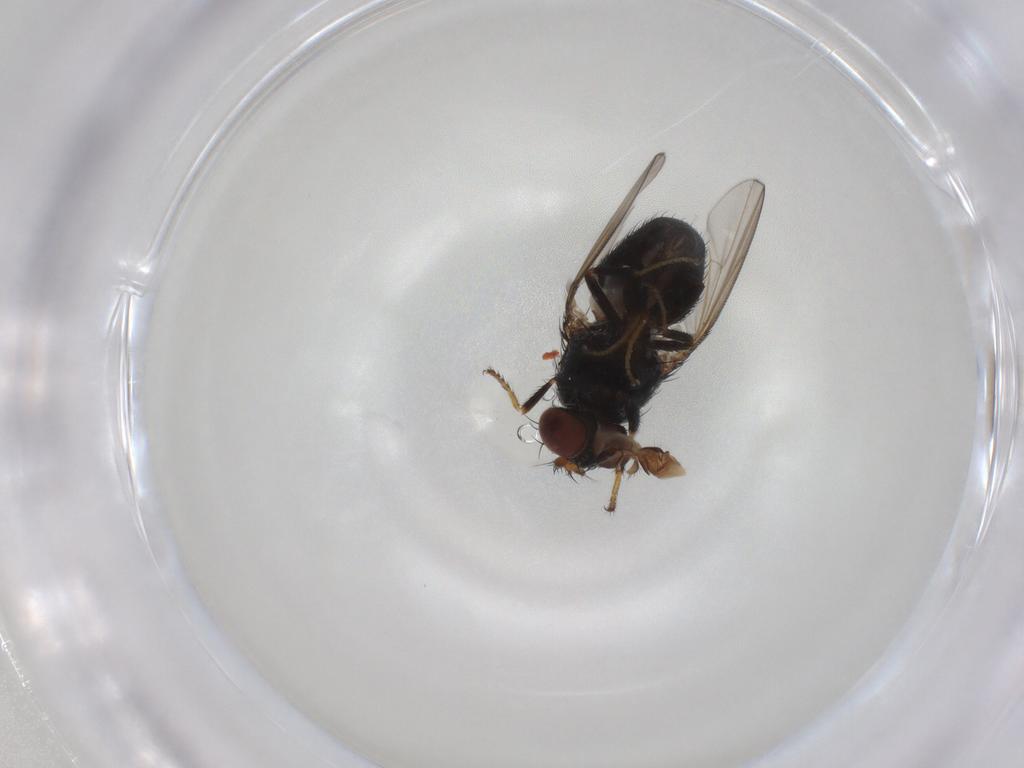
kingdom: Animalia
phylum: Arthropoda
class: Insecta
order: Diptera
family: Ephydridae
